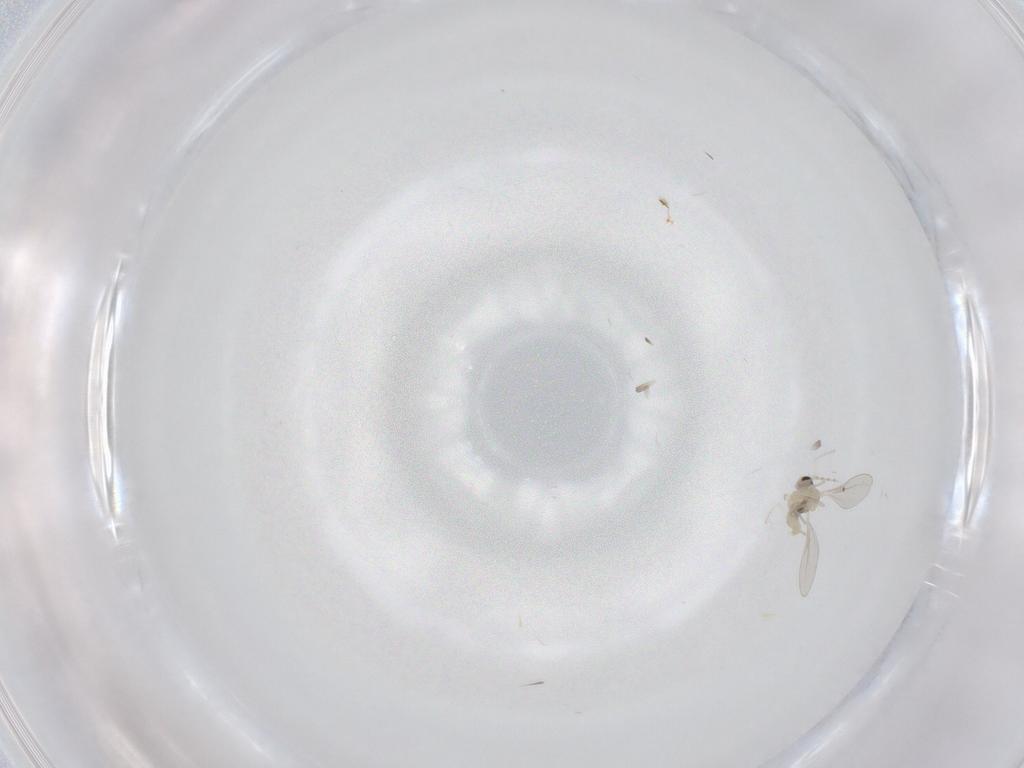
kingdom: Animalia
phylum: Arthropoda
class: Insecta
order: Diptera
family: Cecidomyiidae
